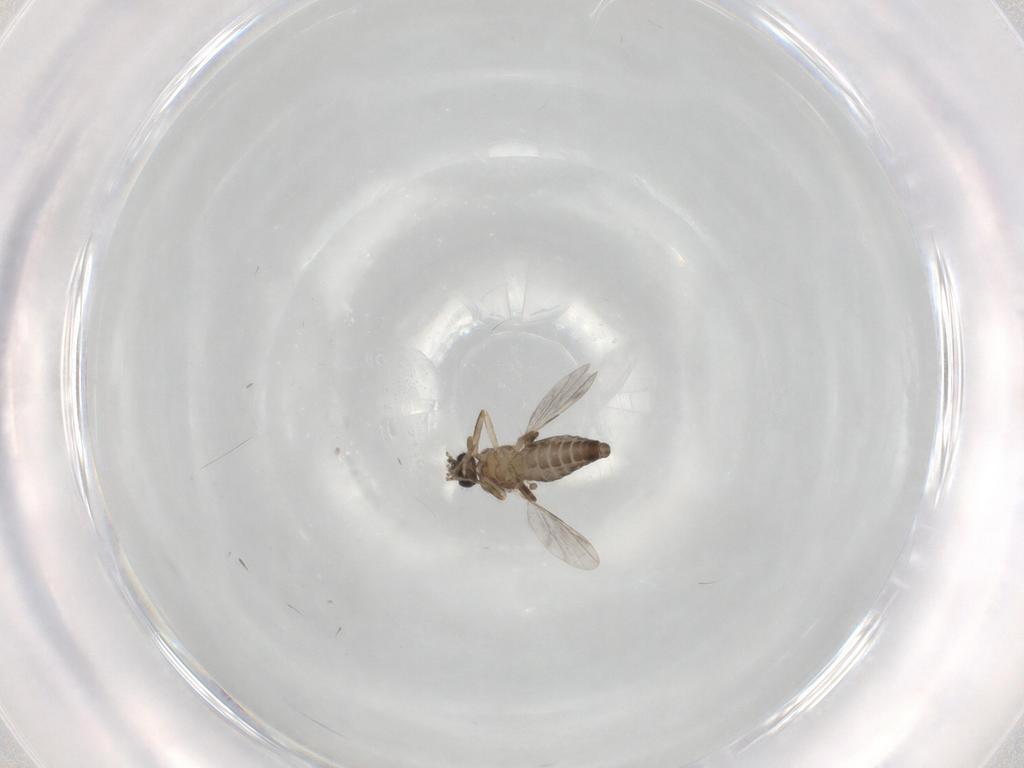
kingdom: Animalia
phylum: Arthropoda
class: Insecta
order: Diptera
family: Ceratopogonidae
